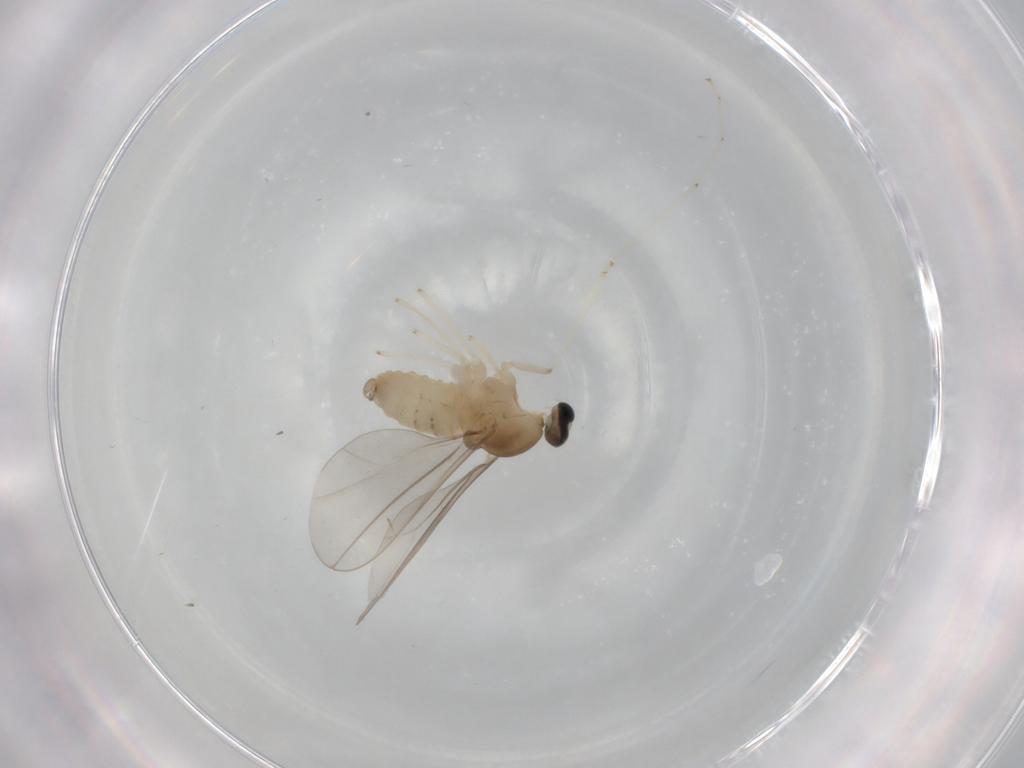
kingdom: Animalia
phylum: Arthropoda
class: Insecta
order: Diptera
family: Cecidomyiidae
